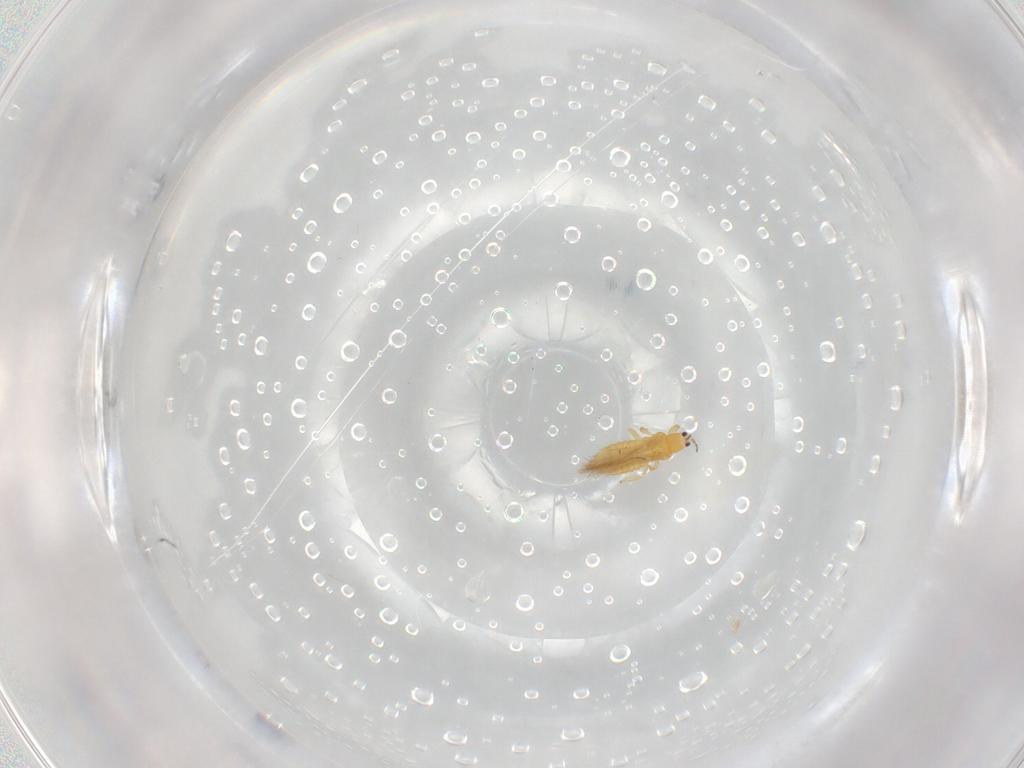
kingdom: Animalia
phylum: Arthropoda
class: Insecta
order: Thysanoptera
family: Thripidae
